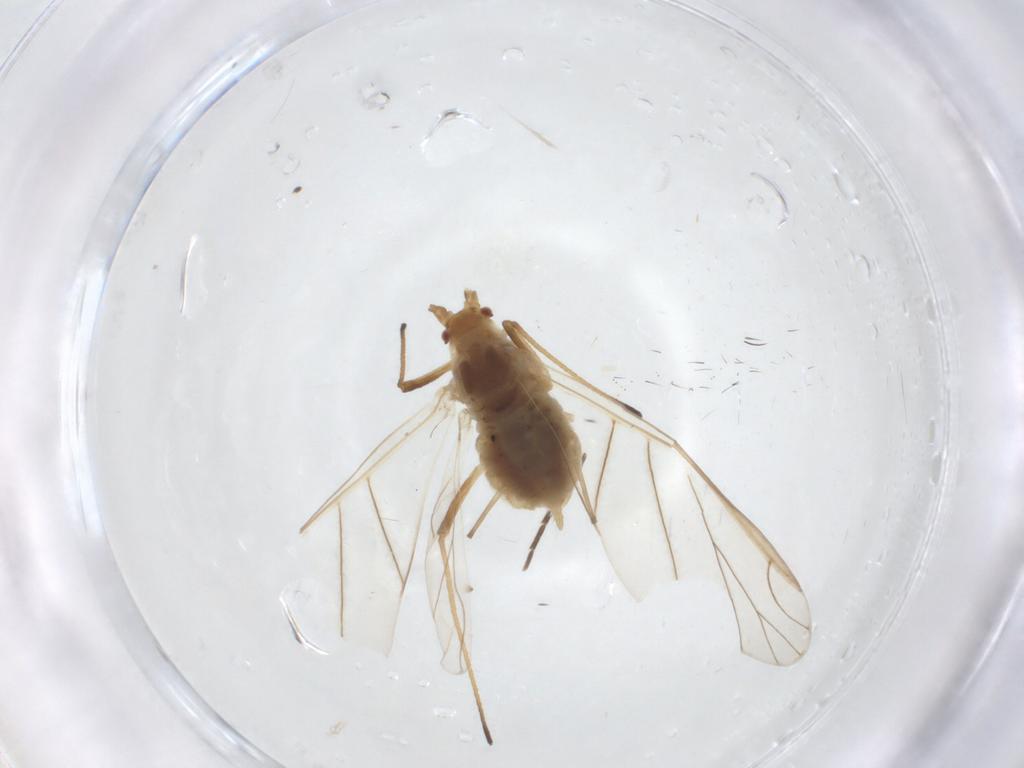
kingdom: Animalia
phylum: Arthropoda
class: Insecta
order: Hemiptera
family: Aphididae
